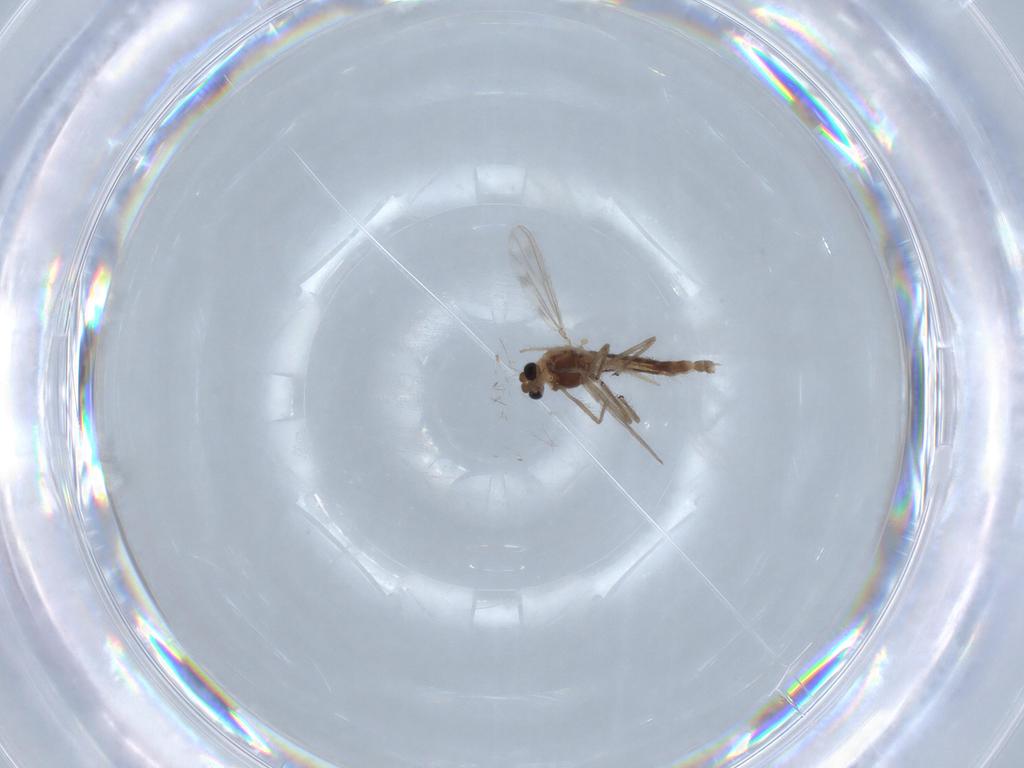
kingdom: Animalia
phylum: Arthropoda
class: Insecta
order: Diptera
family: Chironomidae
